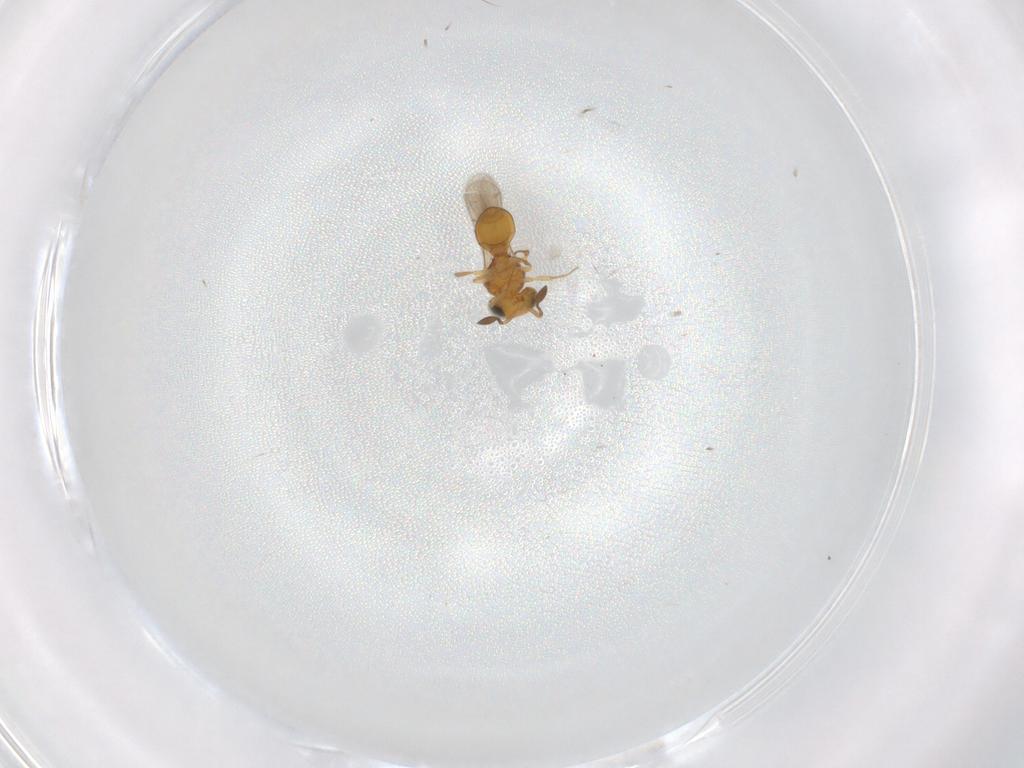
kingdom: Animalia
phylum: Arthropoda
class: Insecta
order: Hymenoptera
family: Scelionidae
